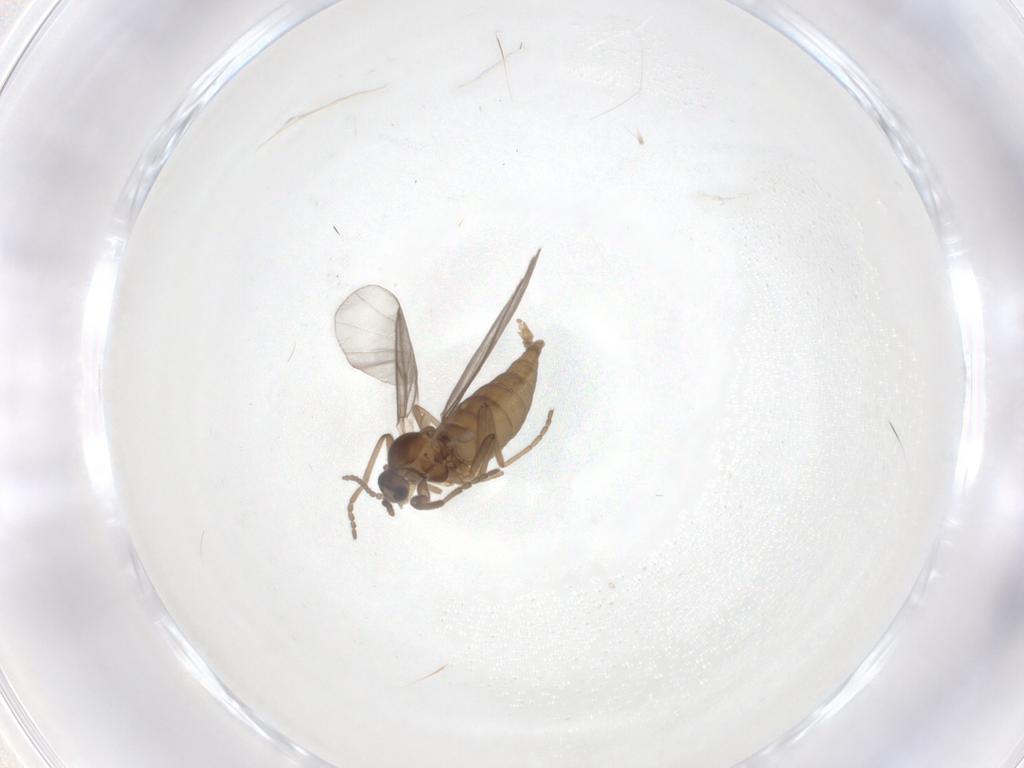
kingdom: Animalia
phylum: Arthropoda
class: Insecta
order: Diptera
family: Cecidomyiidae
